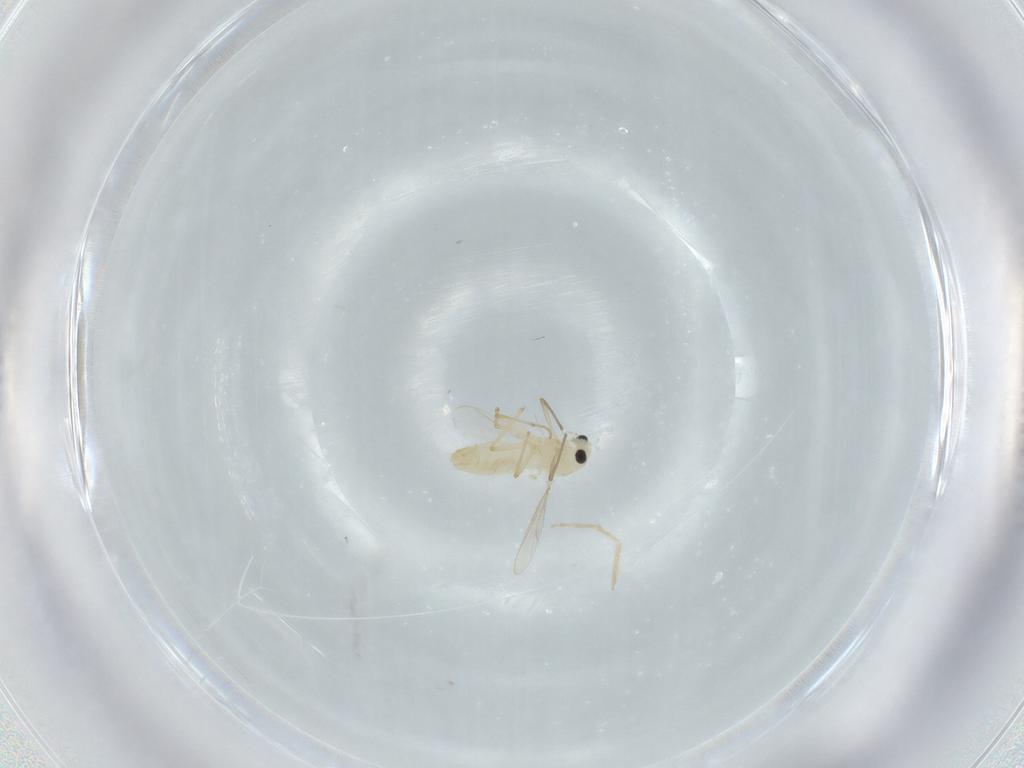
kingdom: Animalia
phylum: Arthropoda
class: Insecta
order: Diptera
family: Chironomidae
